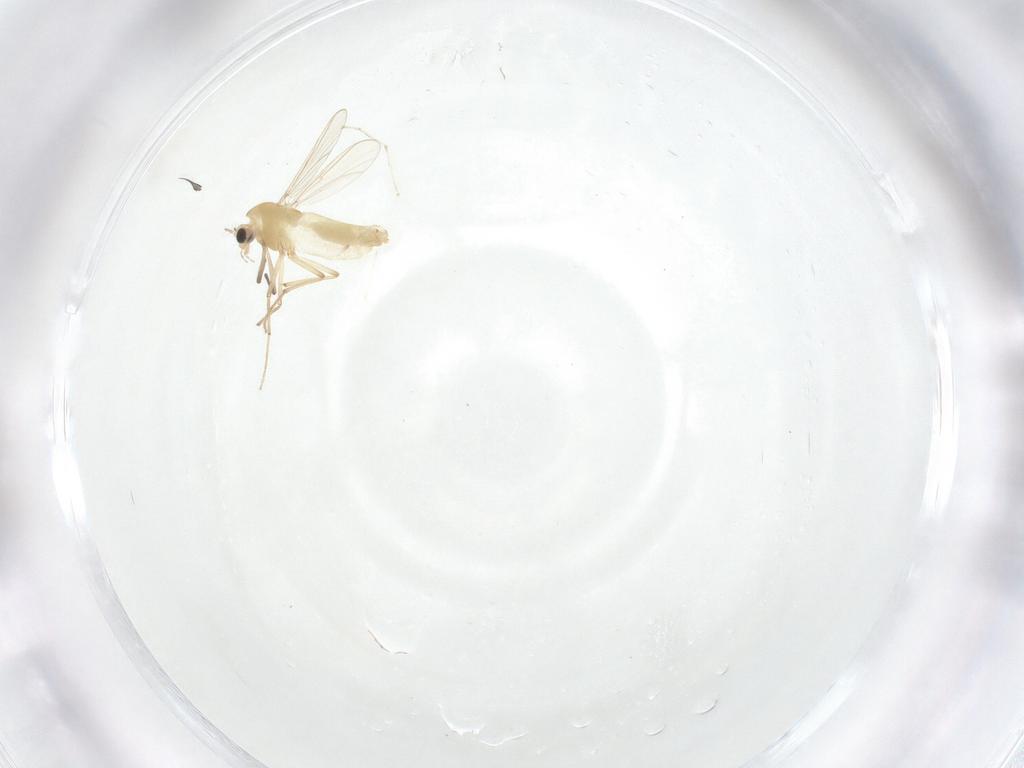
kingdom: Animalia
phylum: Arthropoda
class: Insecta
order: Diptera
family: Chironomidae
